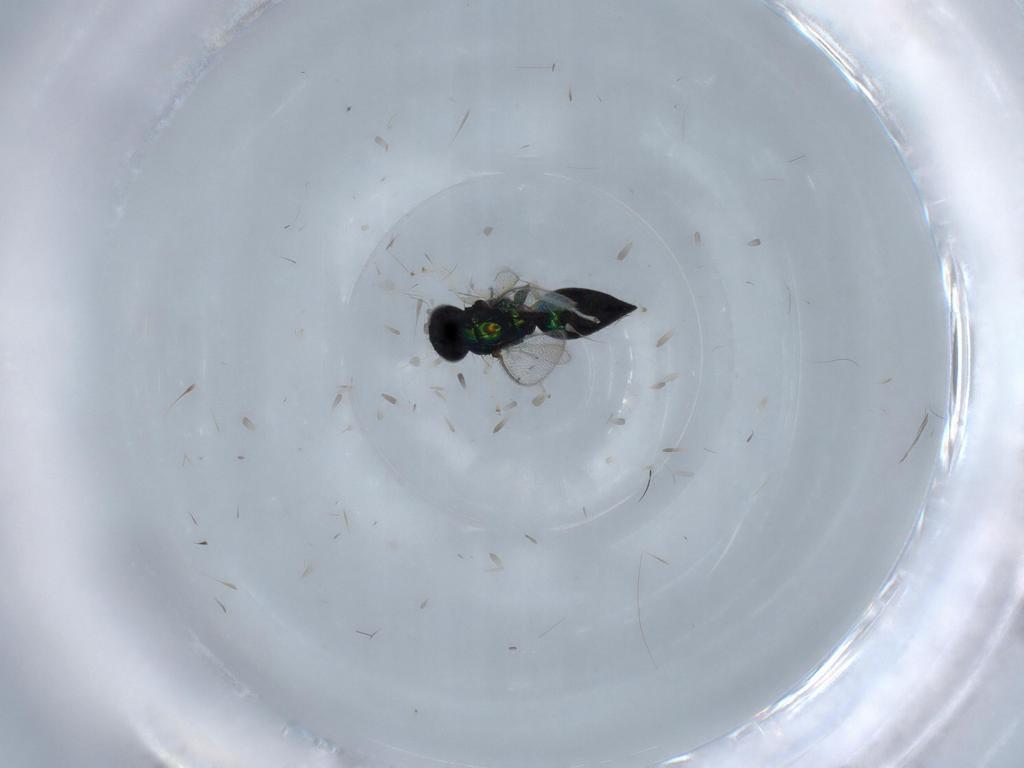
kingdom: Animalia
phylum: Arthropoda
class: Insecta
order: Hymenoptera
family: Eulophidae
